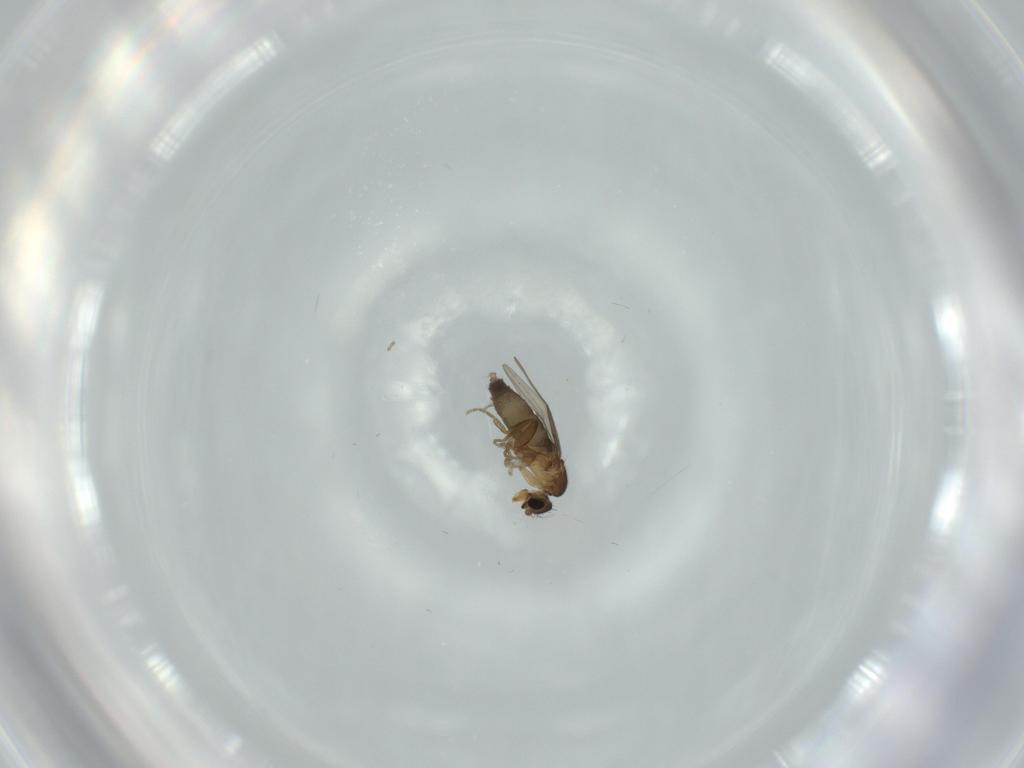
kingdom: Animalia
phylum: Arthropoda
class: Insecta
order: Diptera
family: Phoridae
